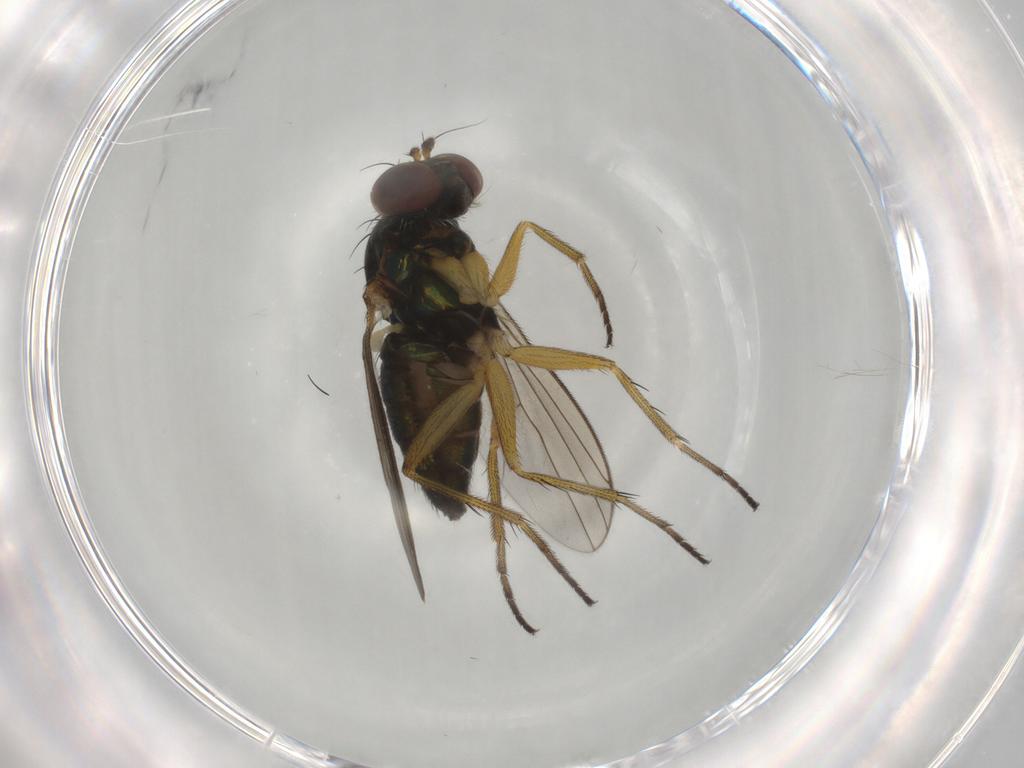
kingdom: Animalia
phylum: Arthropoda
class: Insecta
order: Diptera
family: Dolichopodidae
